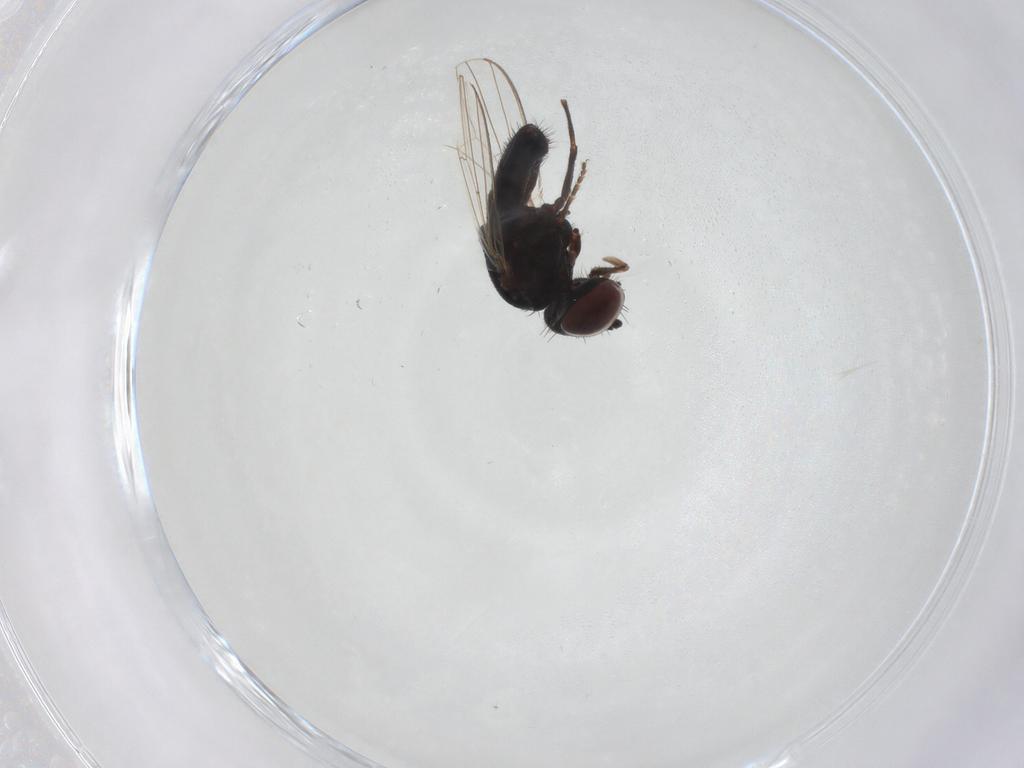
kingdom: Animalia
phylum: Arthropoda
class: Insecta
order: Diptera
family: Milichiidae
